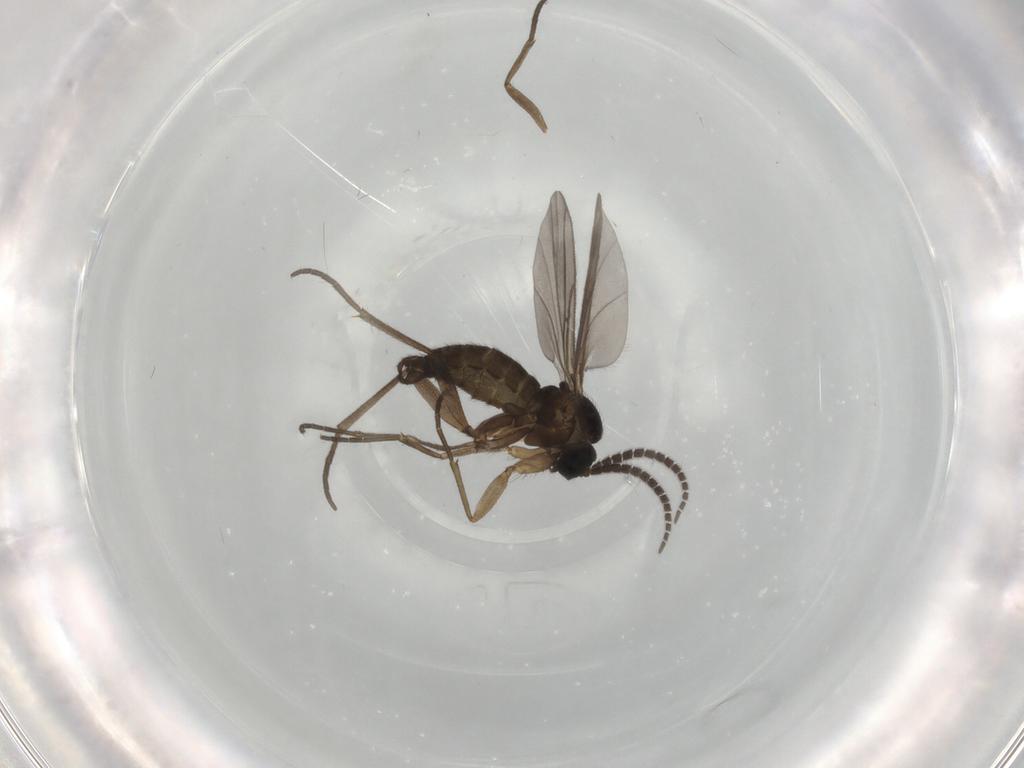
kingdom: Animalia
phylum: Arthropoda
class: Insecta
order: Diptera
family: Sciaridae
